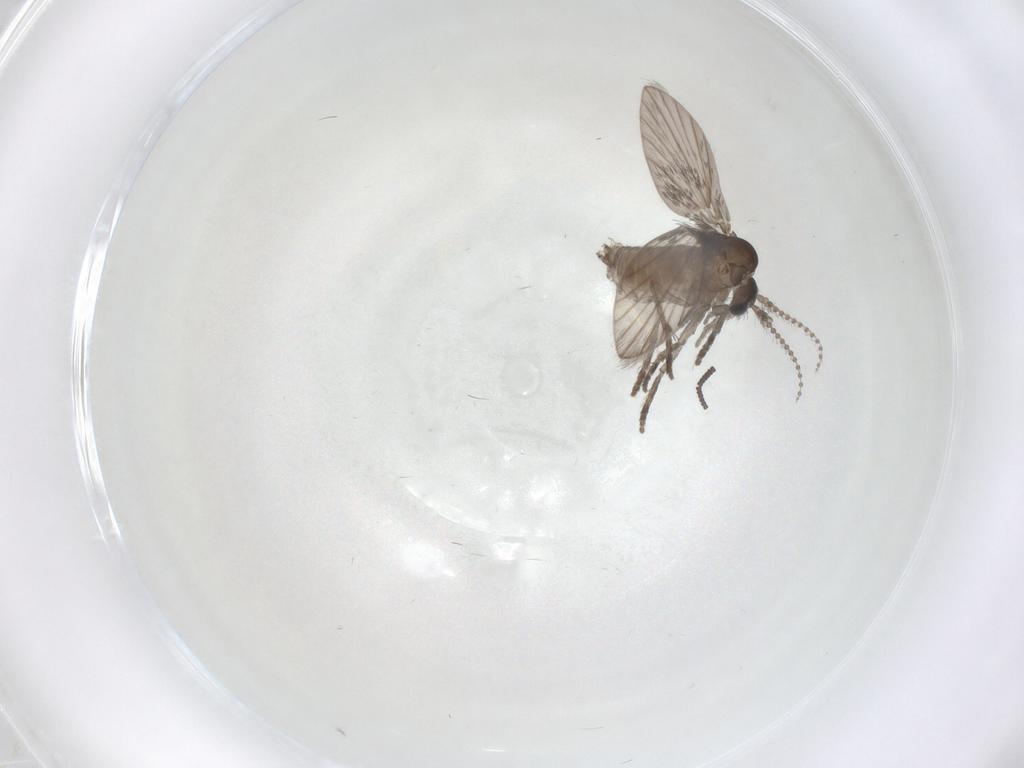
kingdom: Animalia
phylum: Arthropoda
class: Insecta
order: Diptera
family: Psychodidae
